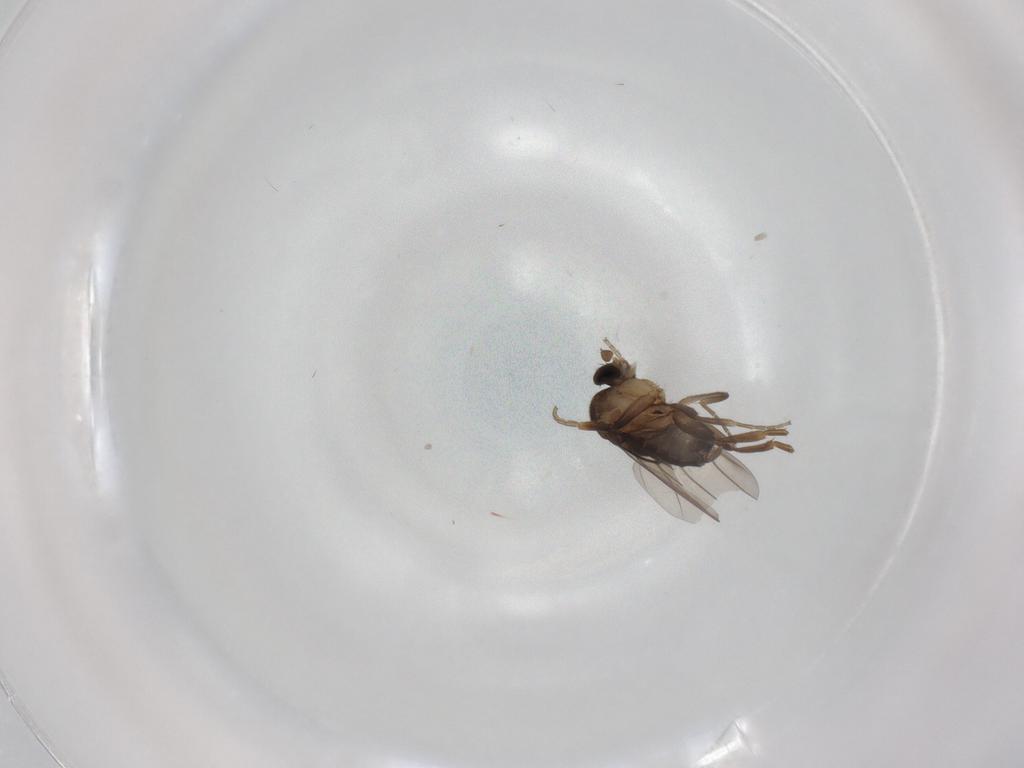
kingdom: Animalia
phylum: Arthropoda
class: Insecta
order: Diptera
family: Phoridae
